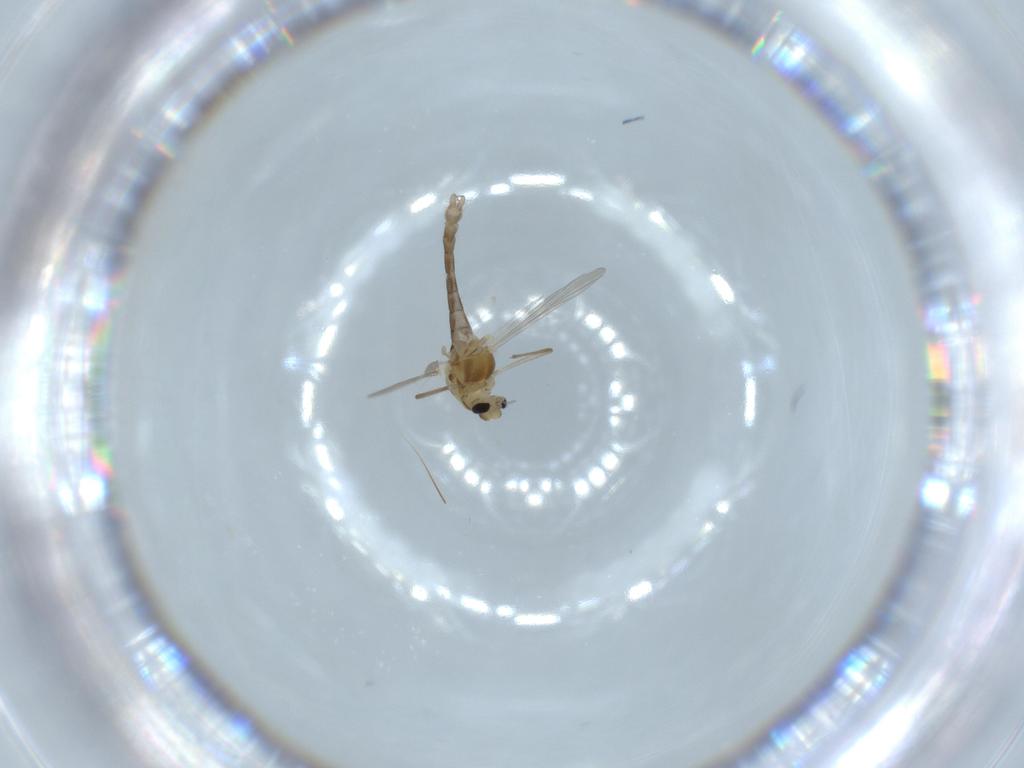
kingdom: Animalia
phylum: Arthropoda
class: Insecta
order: Diptera
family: Chironomidae
